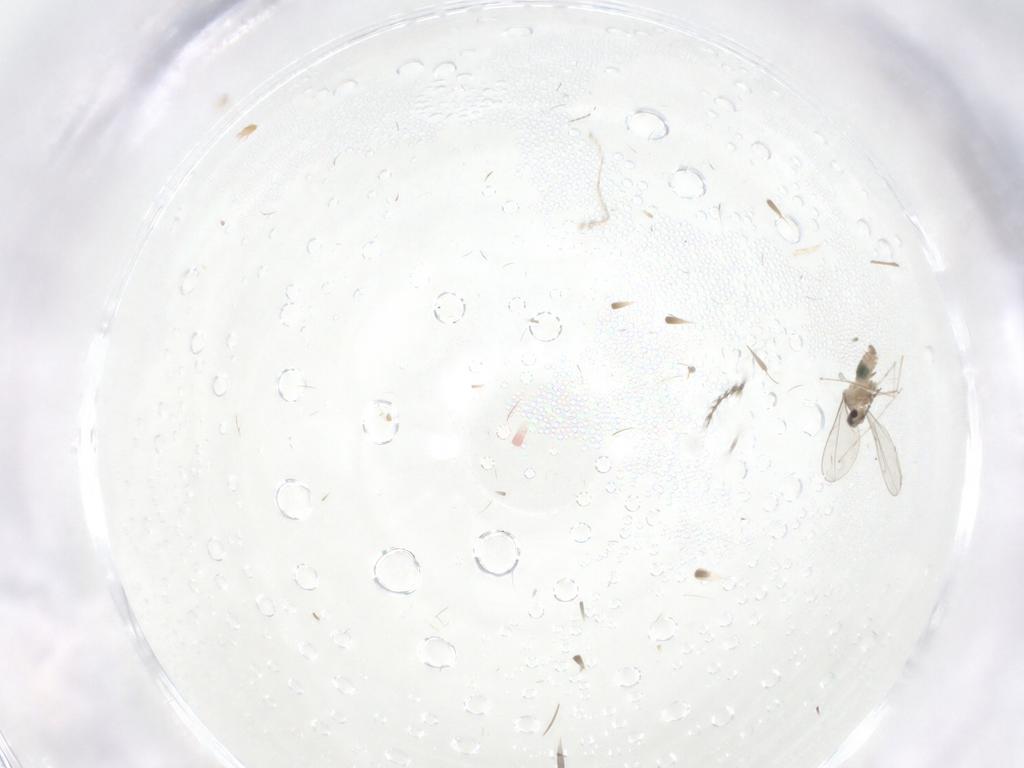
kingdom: Animalia
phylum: Arthropoda
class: Insecta
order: Diptera
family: Cecidomyiidae
